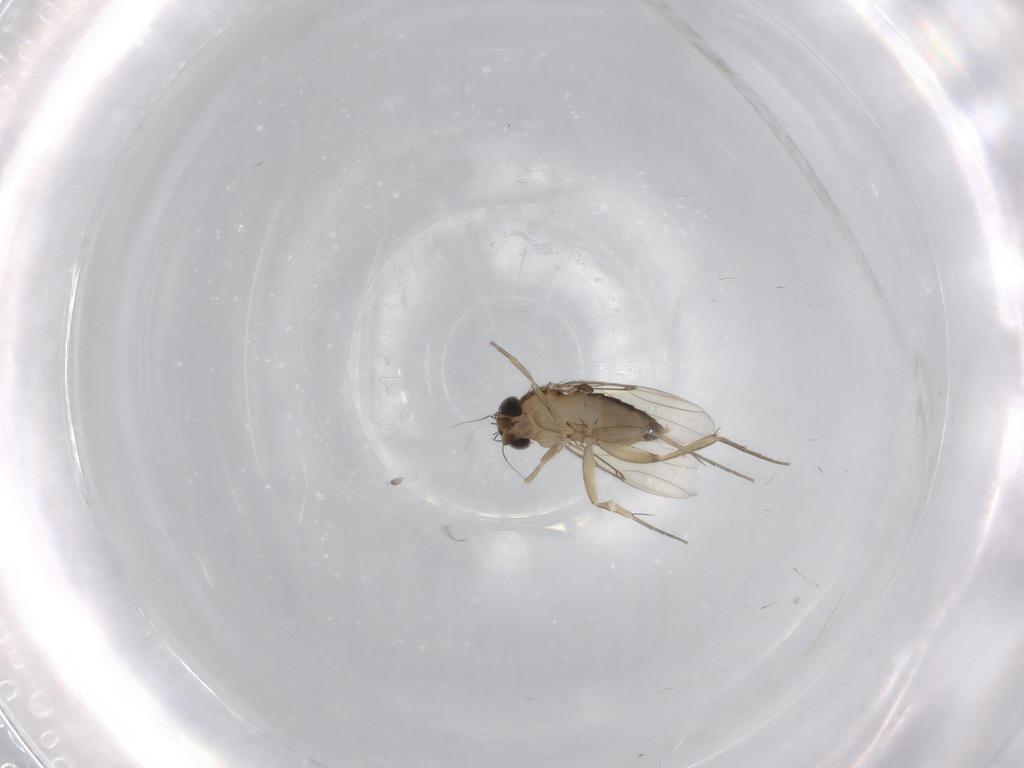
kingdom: Animalia
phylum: Arthropoda
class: Insecta
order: Diptera
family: Phoridae
